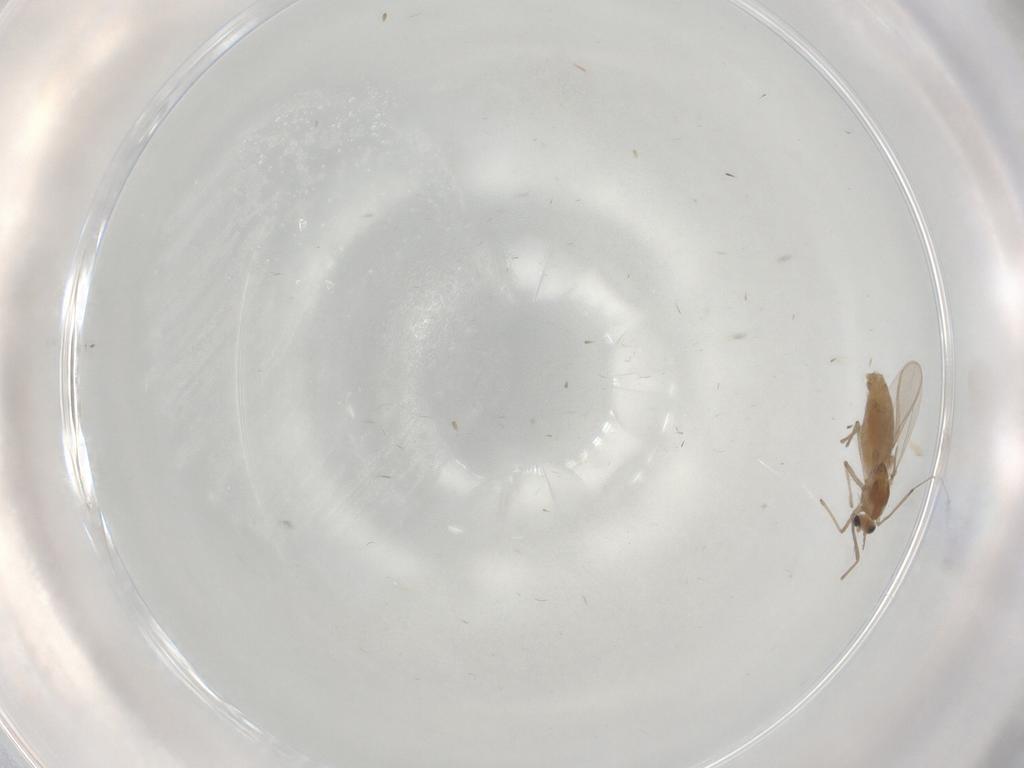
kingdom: Animalia
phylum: Arthropoda
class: Insecta
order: Diptera
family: Chironomidae
